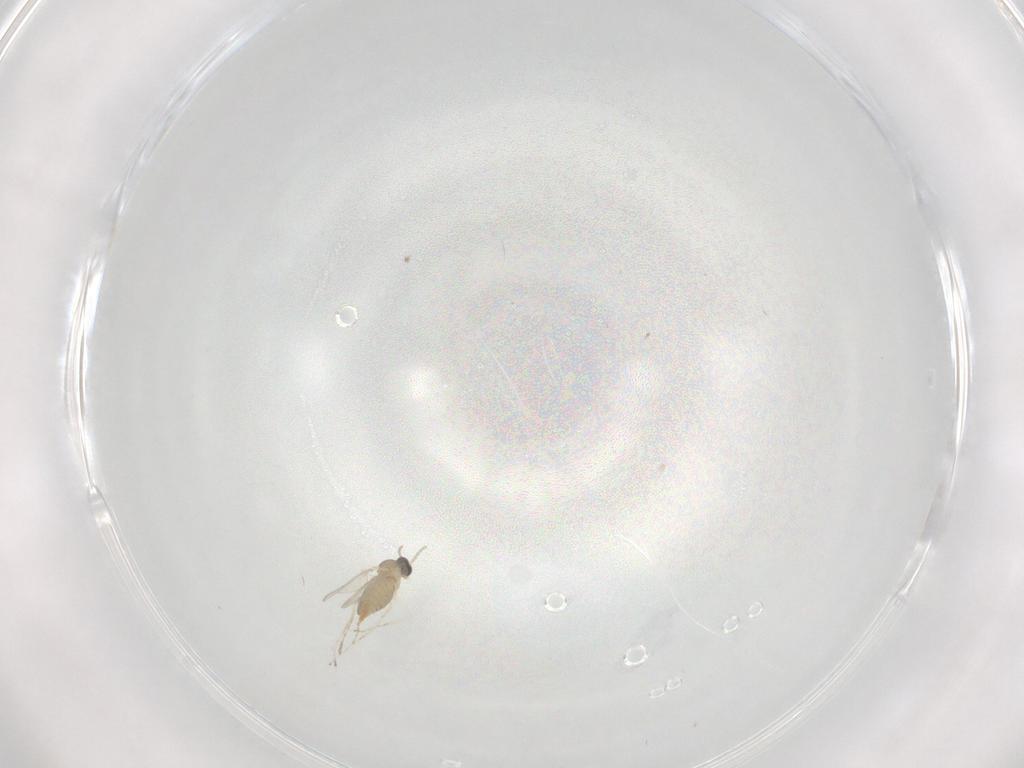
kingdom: Animalia
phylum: Arthropoda
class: Insecta
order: Diptera
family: Cecidomyiidae
